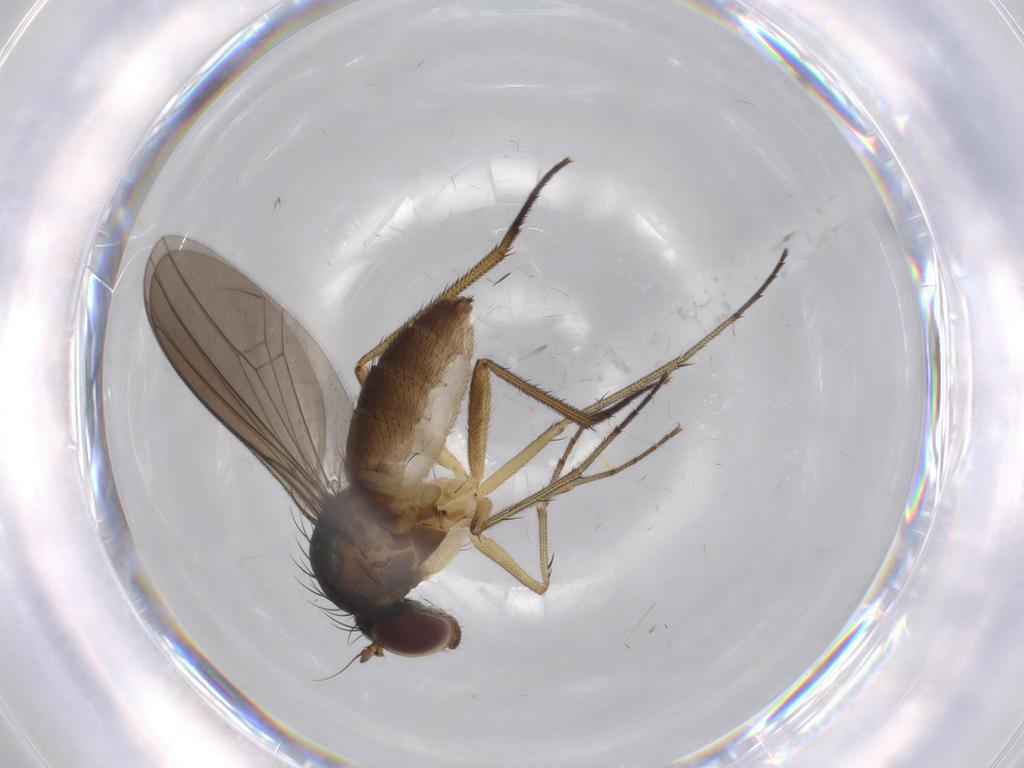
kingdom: Animalia
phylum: Arthropoda
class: Insecta
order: Diptera
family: Dolichopodidae
